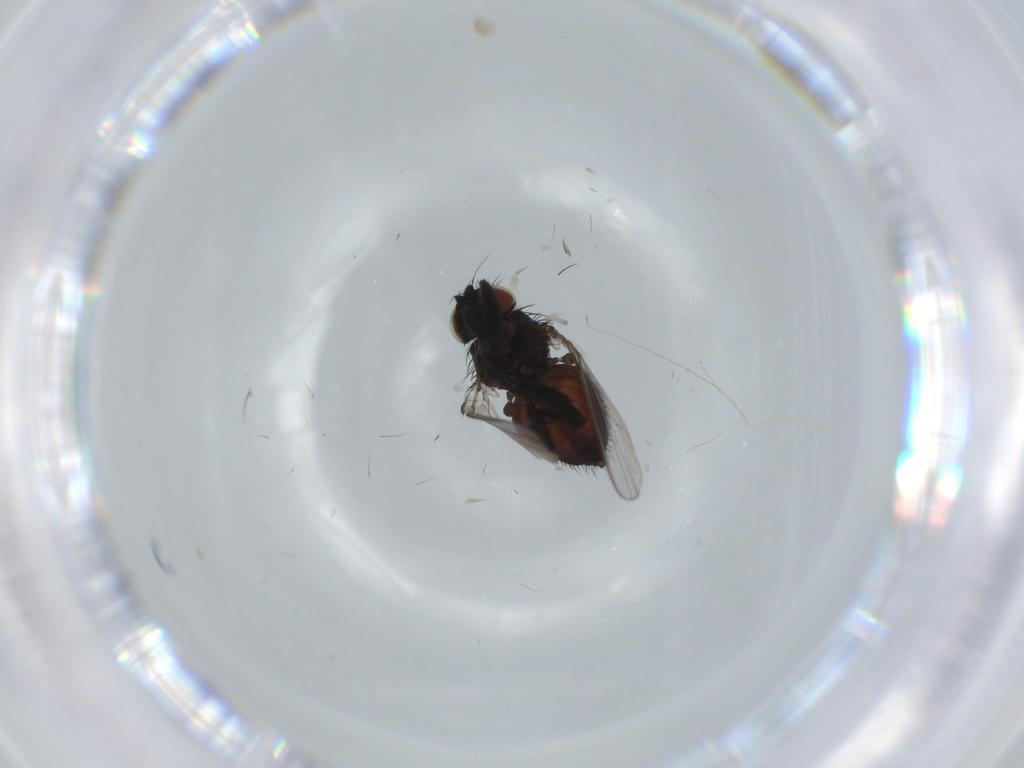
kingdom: Animalia
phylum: Arthropoda
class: Insecta
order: Diptera
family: Milichiidae
